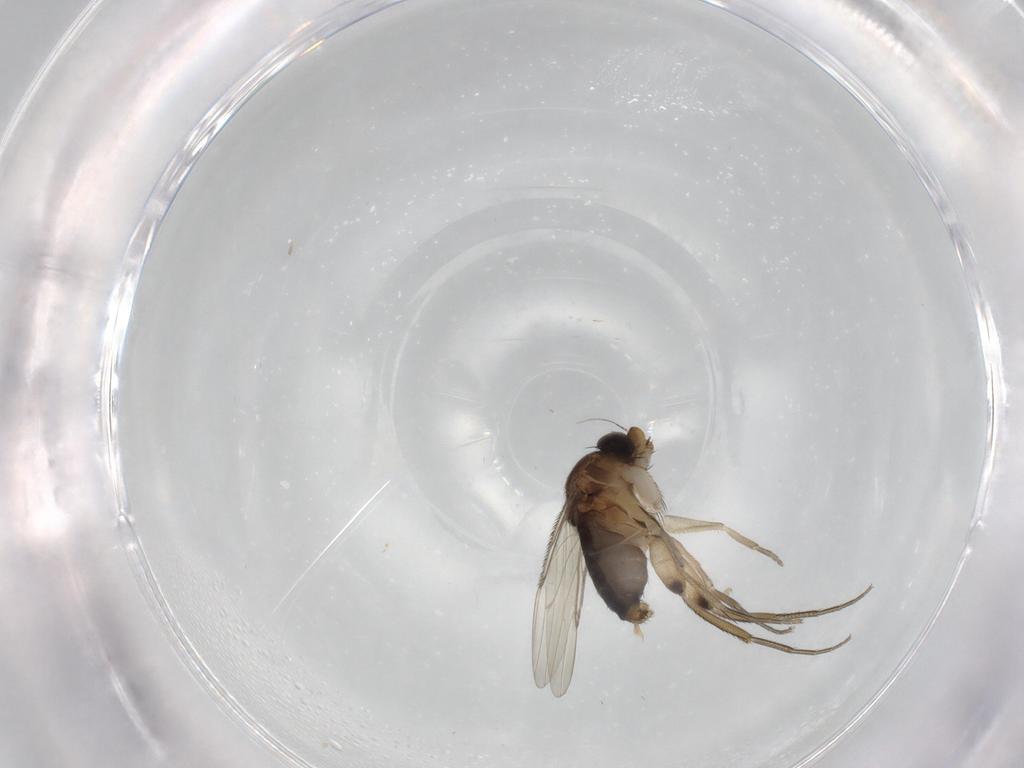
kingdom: Animalia
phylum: Arthropoda
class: Insecta
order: Diptera
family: Phoridae
